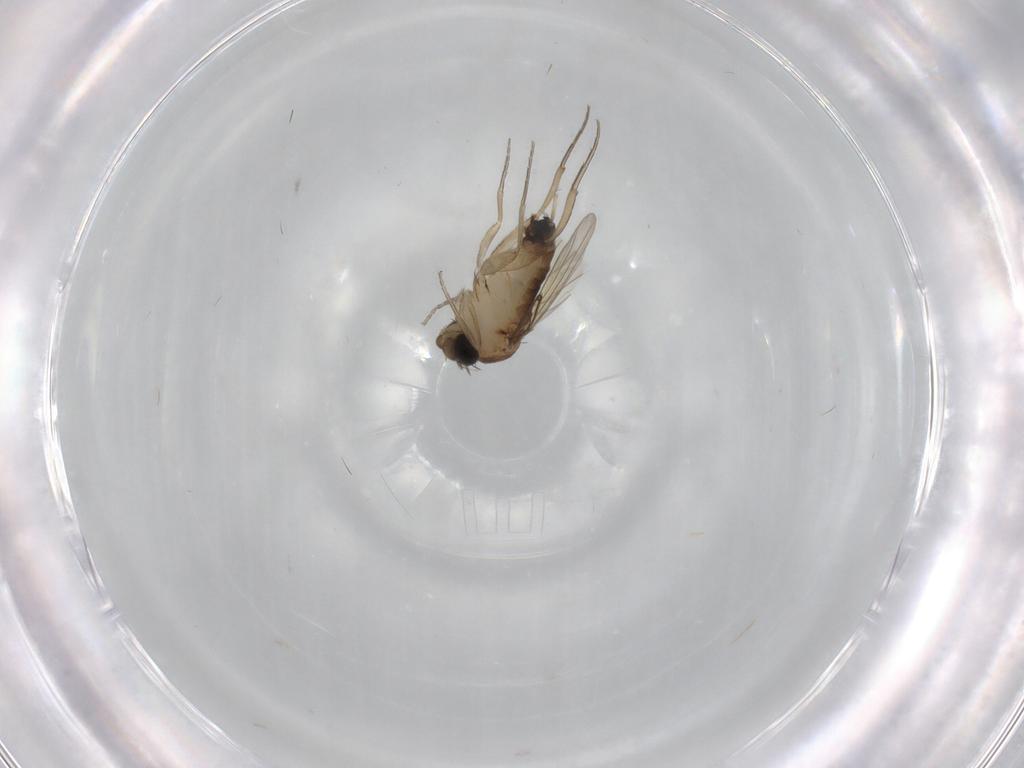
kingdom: Animalia
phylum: Arthropoda
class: Insecta
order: Diptera
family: Phoridae
